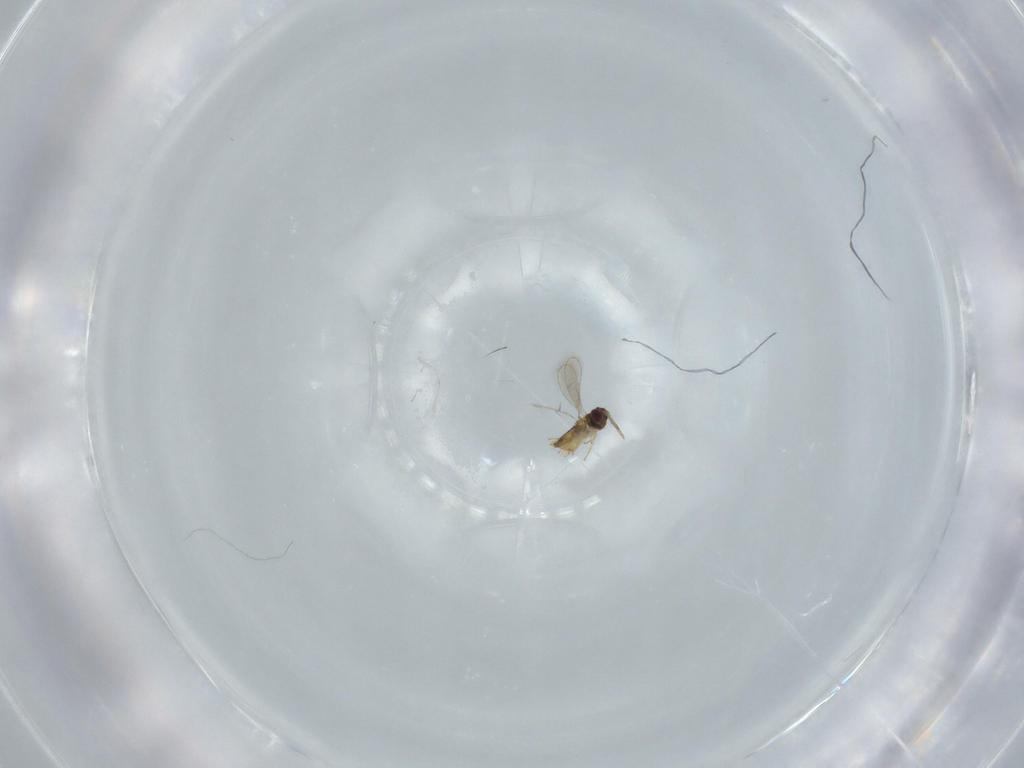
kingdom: Animalia
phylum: Arthropoda
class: Insecta
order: Hymenoptera
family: Aphelinidae
